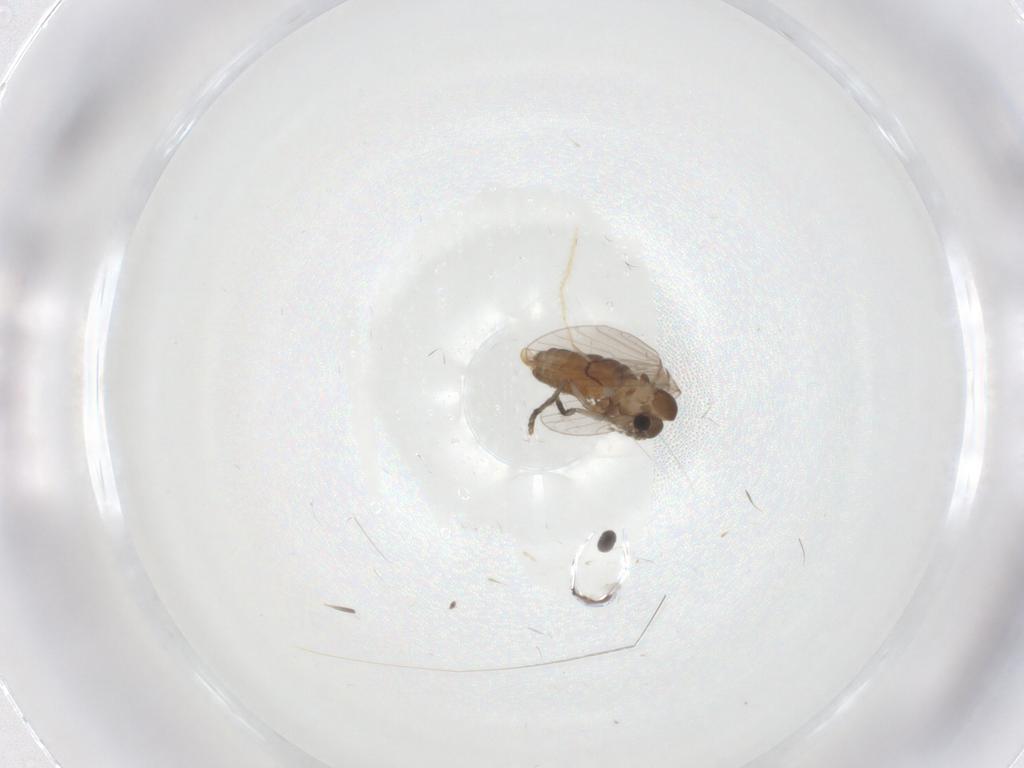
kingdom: Animalia
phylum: Arthropoda
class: Insecta
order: Diptera
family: Chironomidae
